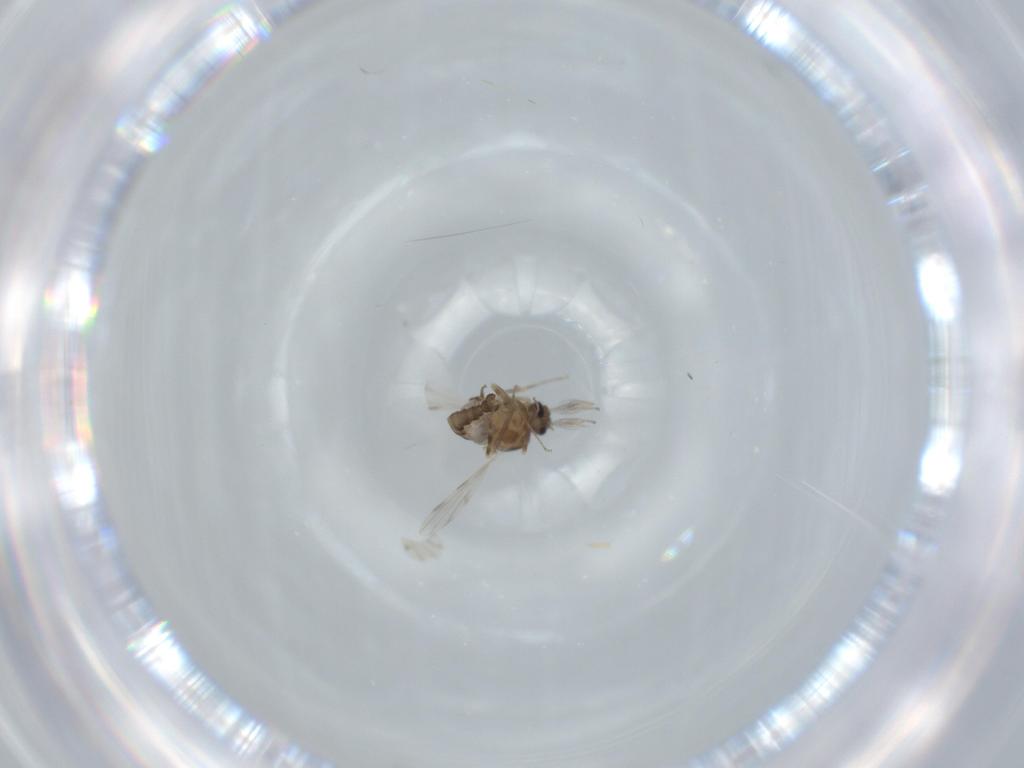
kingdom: Animalia
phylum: Arthropoda
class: Insecta
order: Diptera
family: Ceratopogonidae
